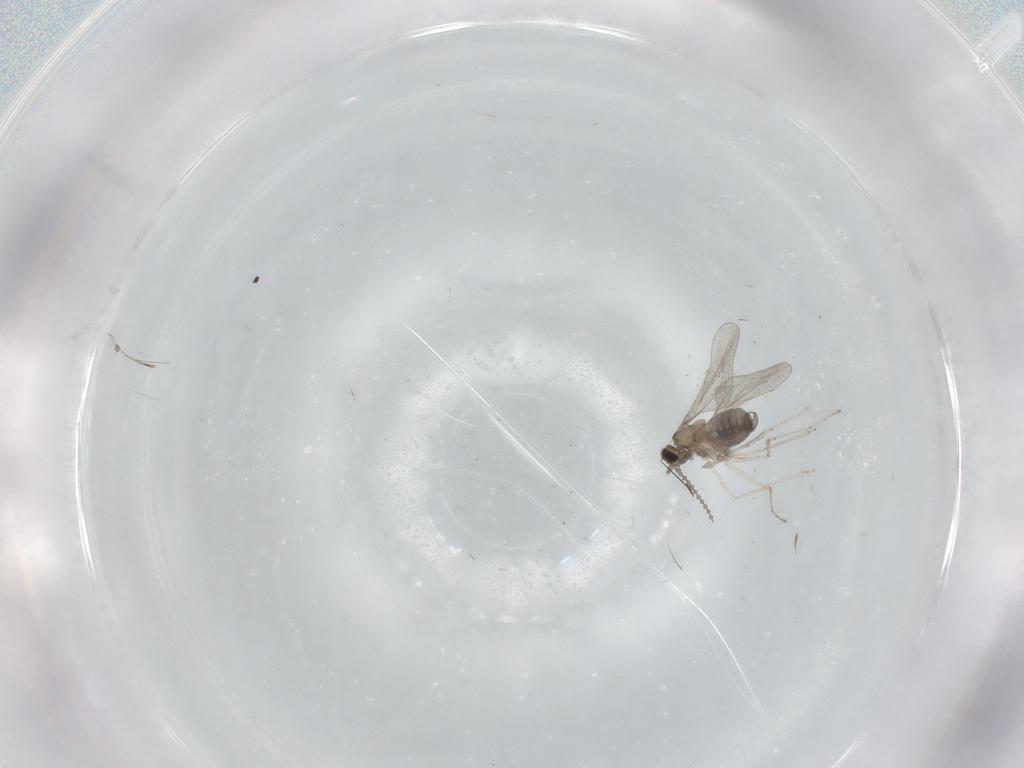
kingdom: Animalia
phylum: Arthropoda
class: Insecta
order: Diptera
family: Cecidomyiidae
